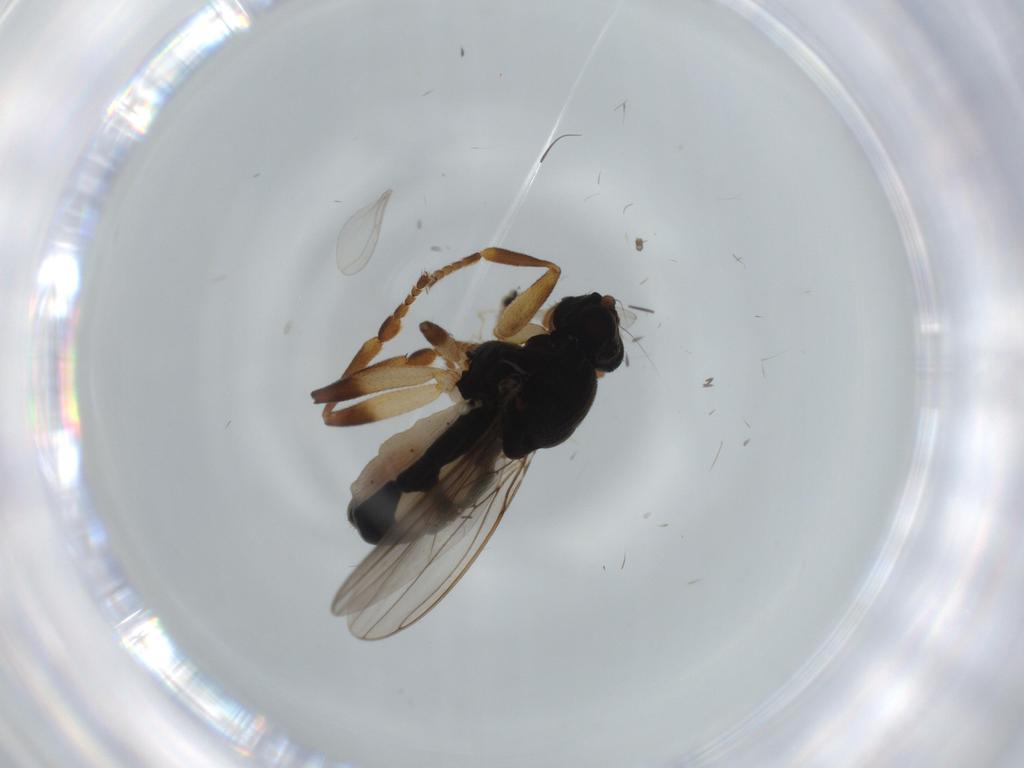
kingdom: Animalia
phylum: Arthropoda
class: Insecta
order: Diptera
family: Cecidomyiidae
